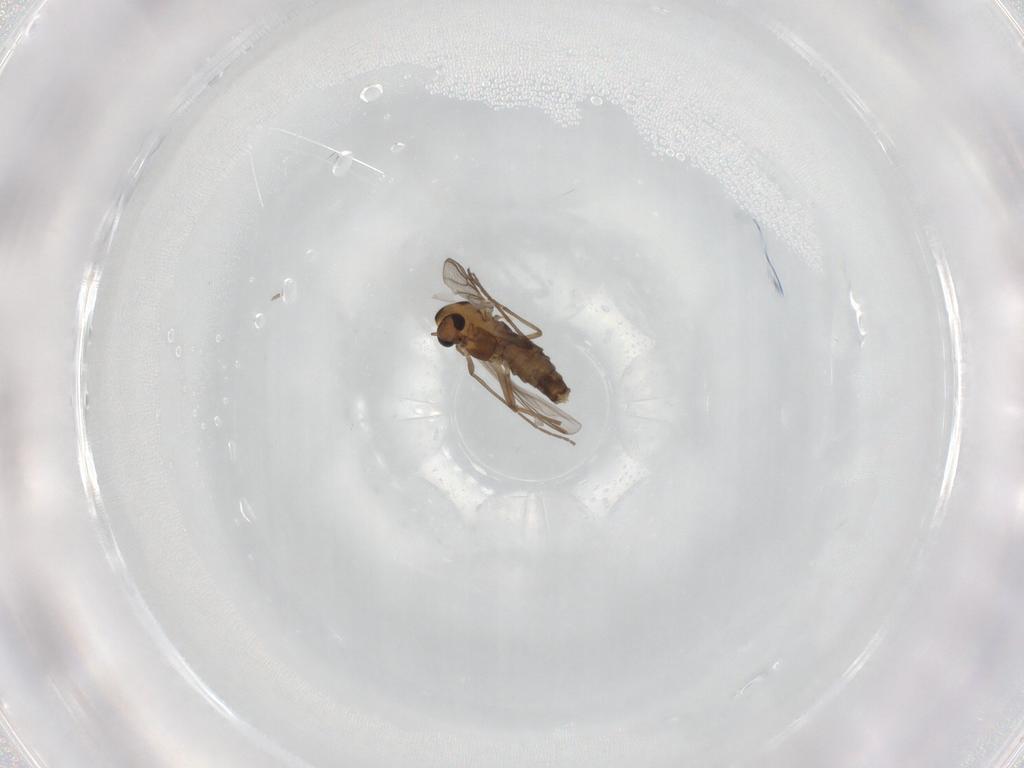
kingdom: Animalia
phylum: Arthropoda
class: Insecta
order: Diptera
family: Chironomidae
